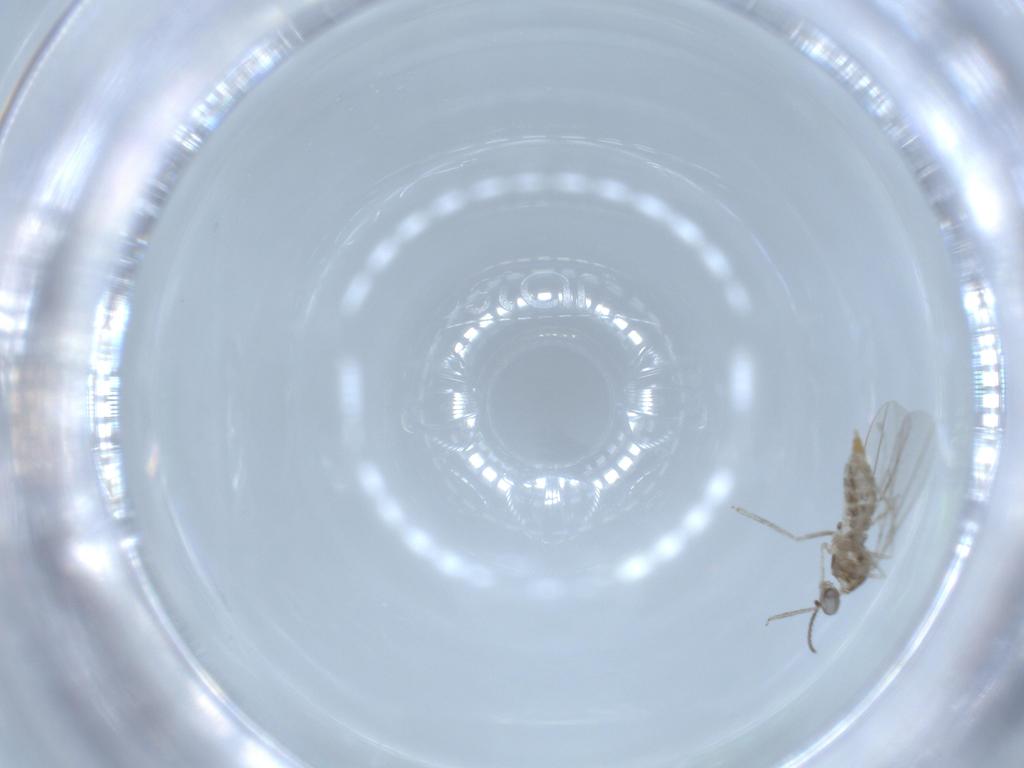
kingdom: Animalia
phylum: Arthropoda
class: Insecta
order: Diptera
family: Cecidomyiidae
